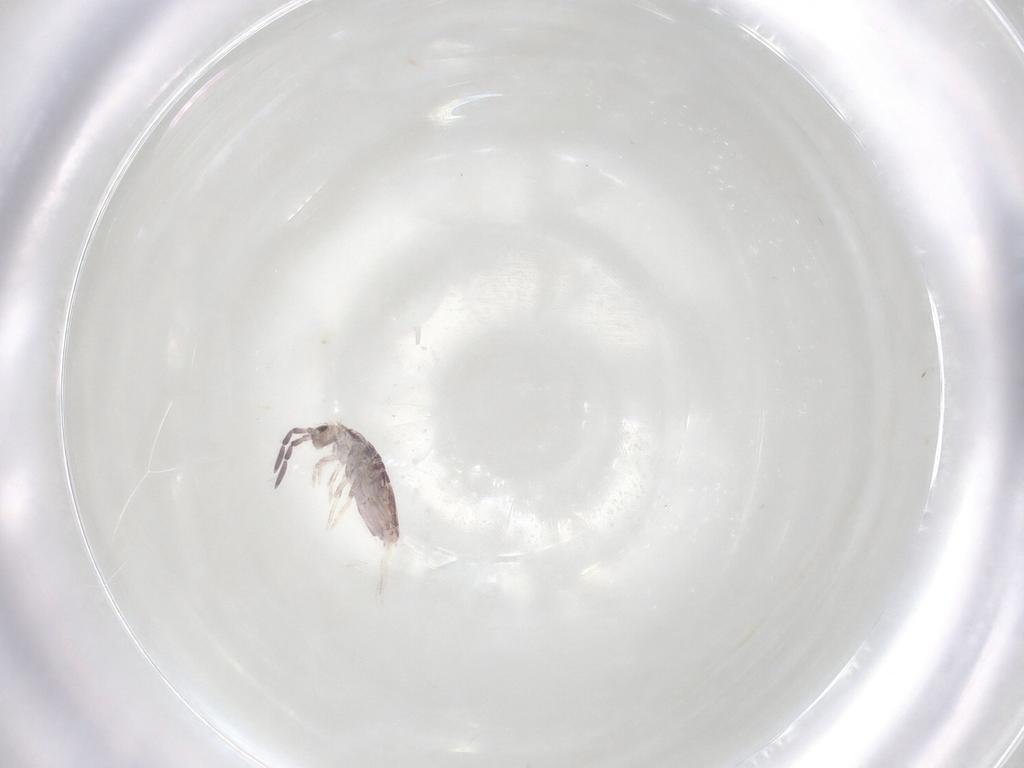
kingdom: Animalia
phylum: Arthropoda
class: Collembola
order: Poduromorpha
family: Hypogastruridae
